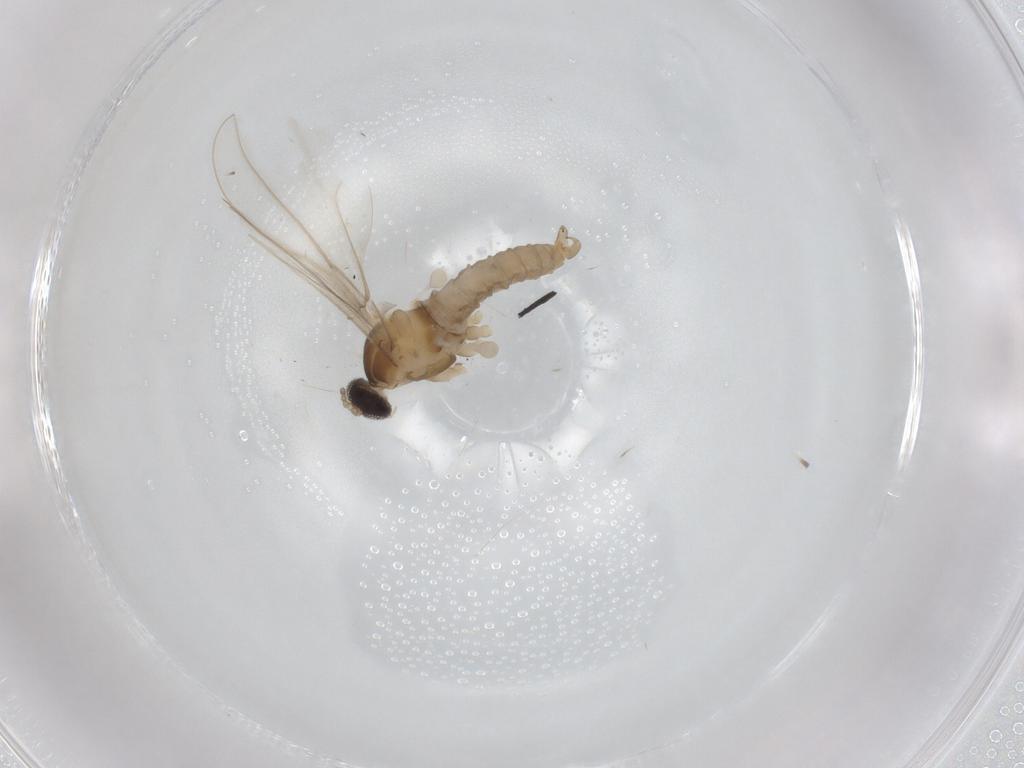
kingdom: Animalia
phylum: Arthropoda
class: Insecta
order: Diptera
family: Cecidomyiidae
